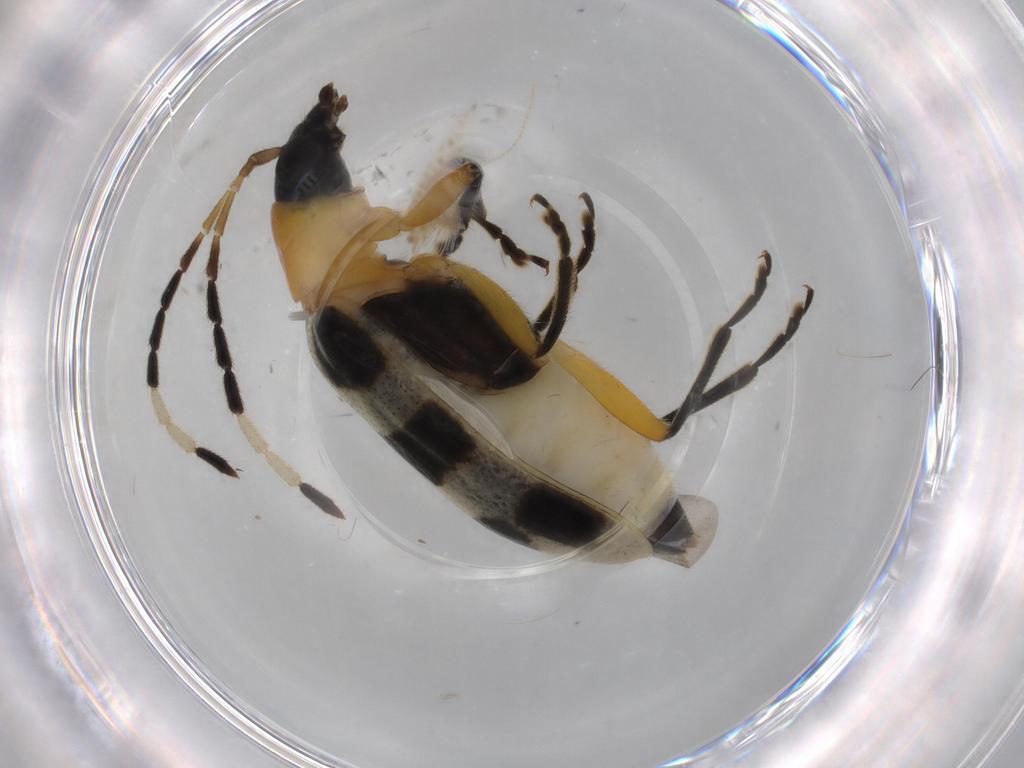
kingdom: Animalia
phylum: Arthropoda
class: Insecta
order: Coleoptera
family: Chrysomelidae
